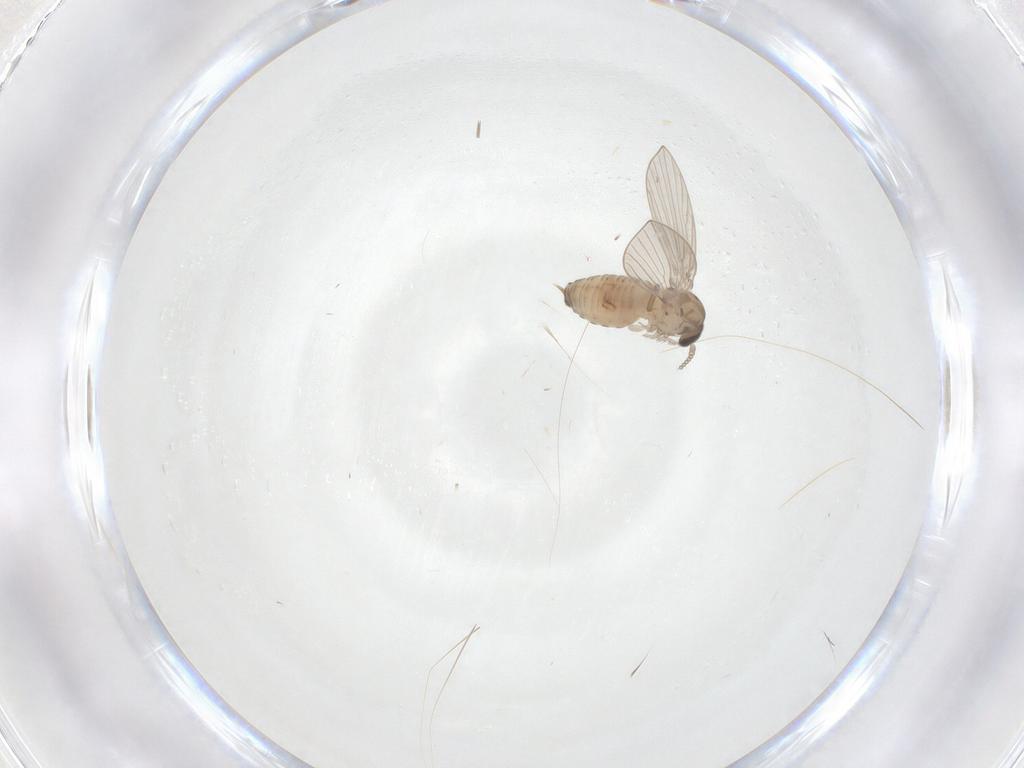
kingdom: Animalia
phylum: Arthropoda
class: Insecta
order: Diptera
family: Psychodidae
